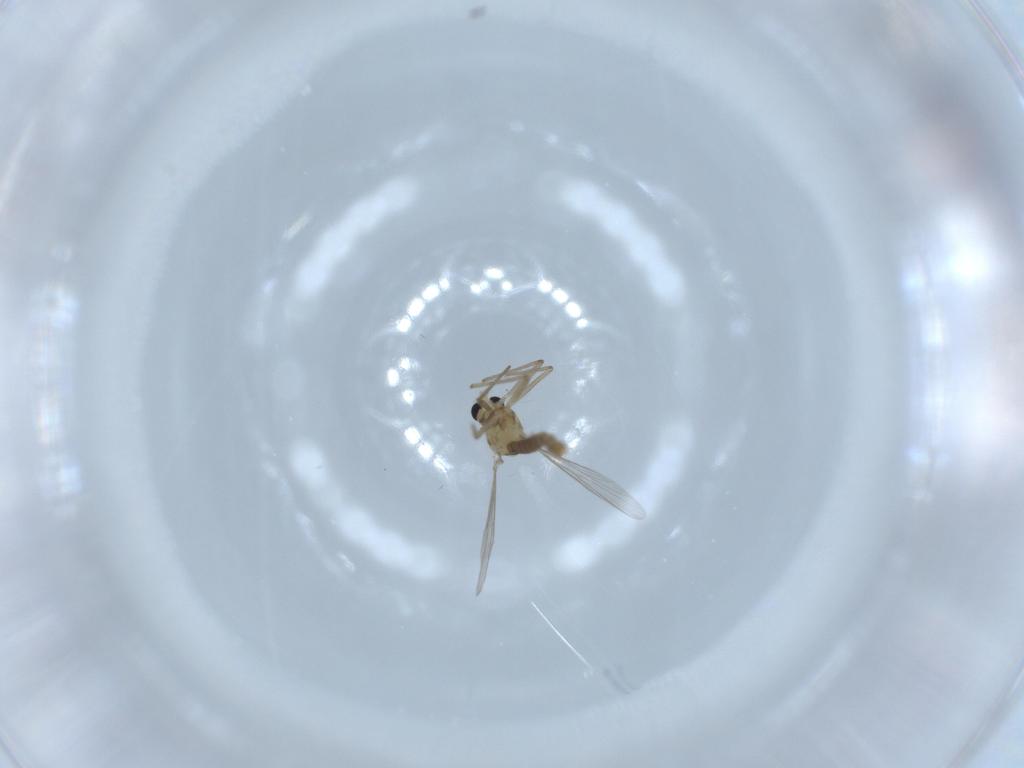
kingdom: Animalia
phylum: Arthropoda
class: Insecta
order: Diptera
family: Chironomidae
